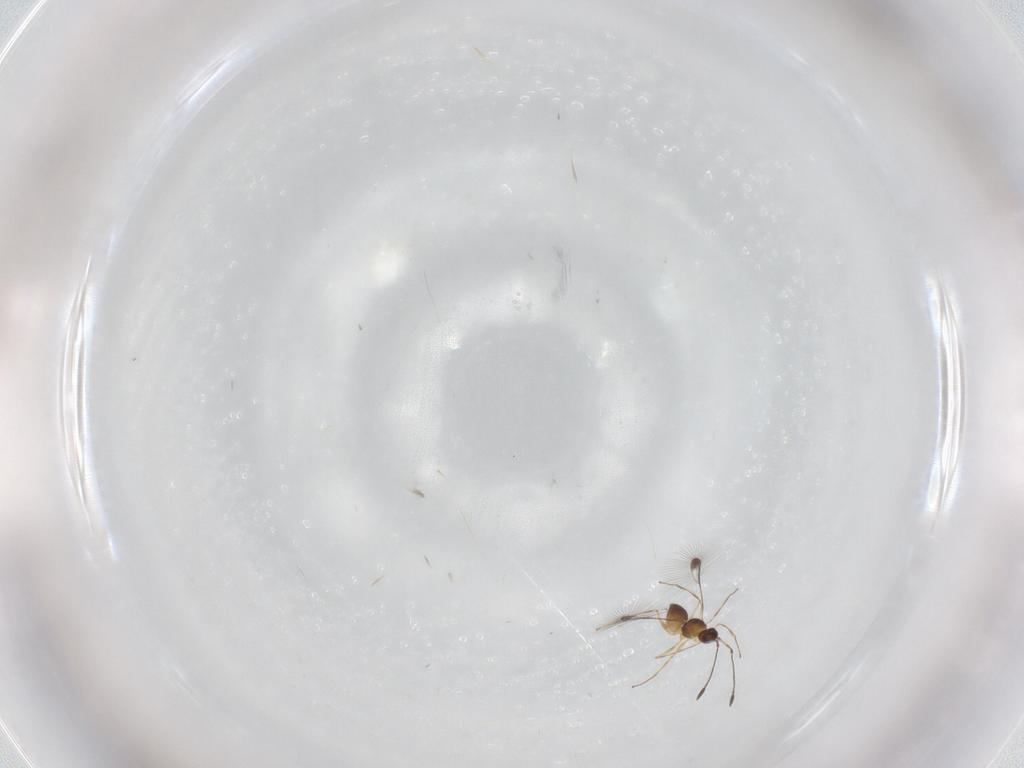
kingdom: Animalia
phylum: Arthropoda
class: Insecta
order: Hymenoptera
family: Mymaridae
